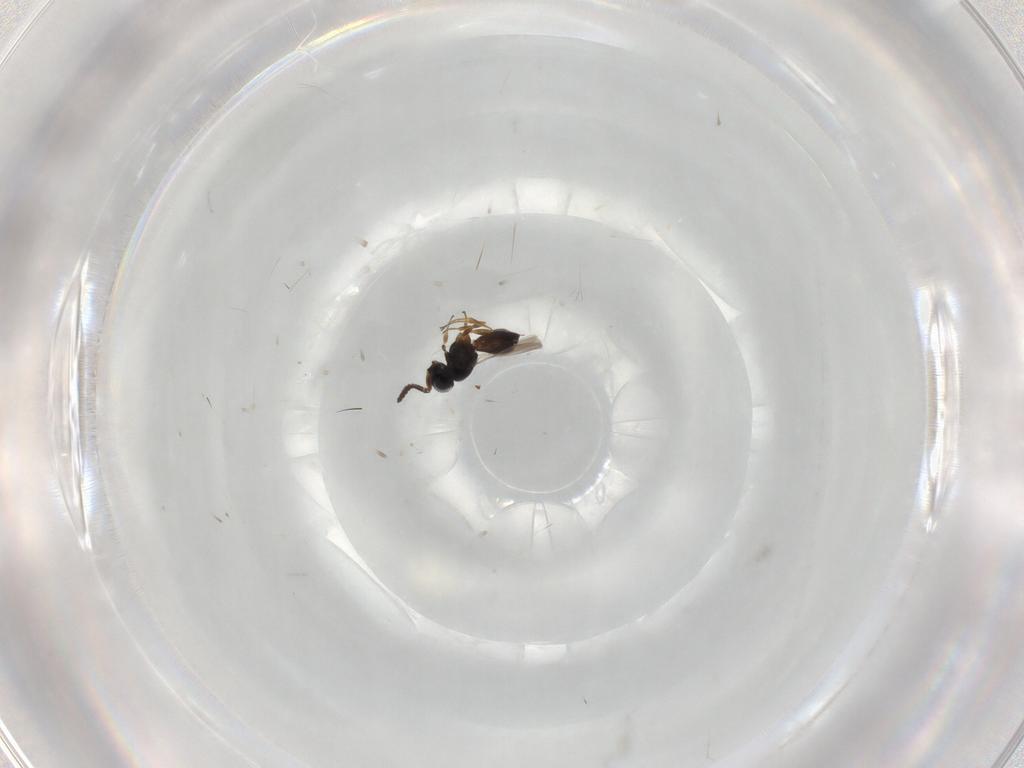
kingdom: Animalia
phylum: Arthropoda
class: Insecta
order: Hymenoptera
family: Scelionidae
